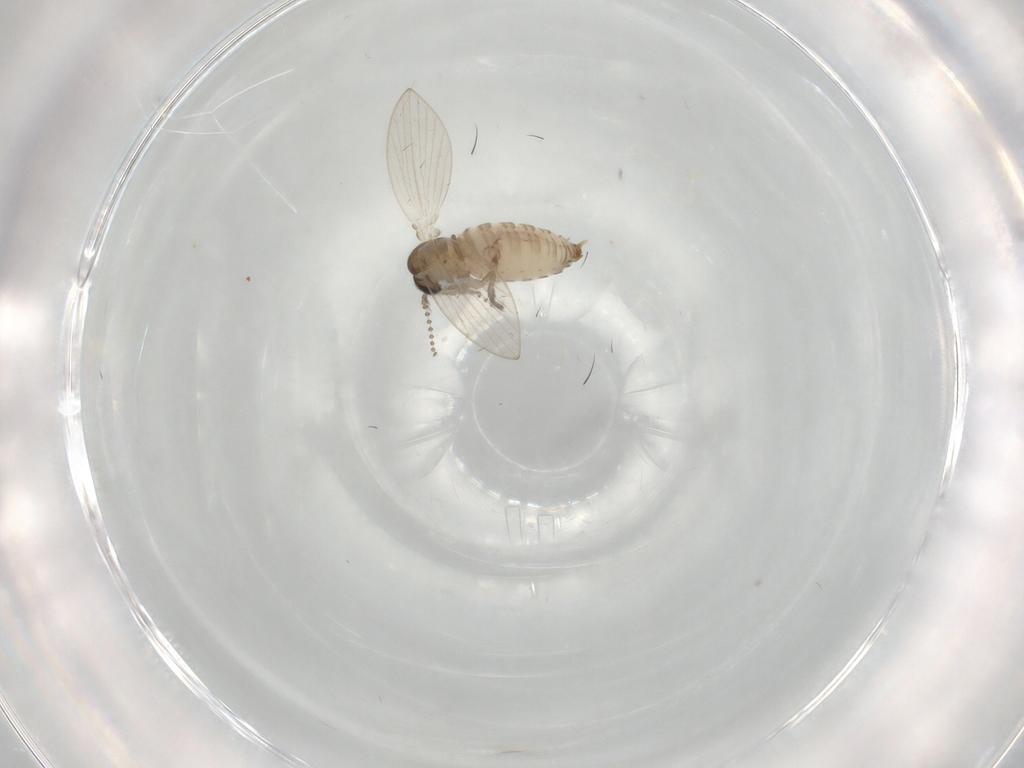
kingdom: Animalia
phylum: Arthropoda
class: Insecta
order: Diptera
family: Psychodidae
